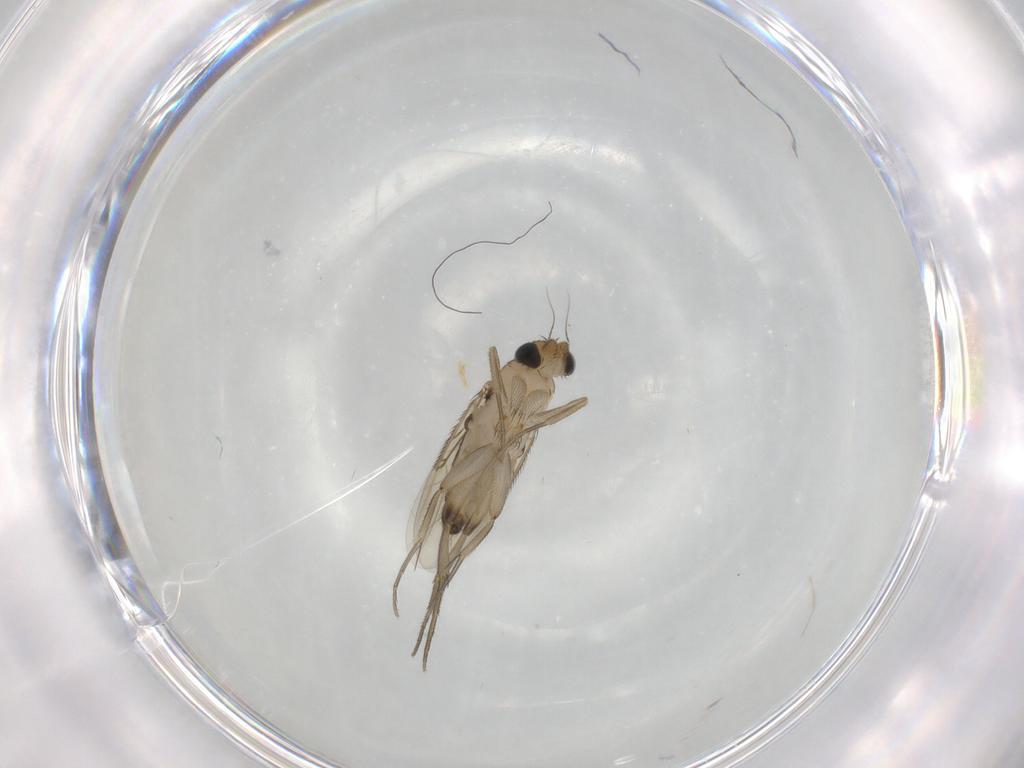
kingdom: Animalia
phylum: Arthropoda
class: Insecta
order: Diptera
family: Phoridae
